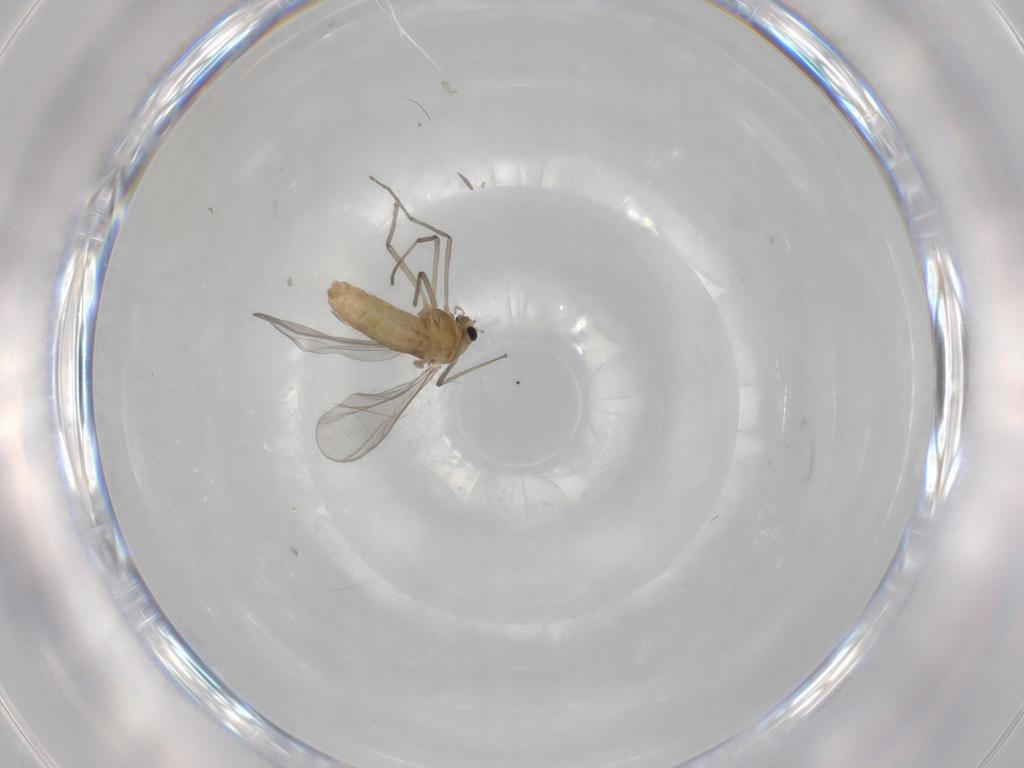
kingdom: Animalia
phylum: Arthropoda
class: Insecta
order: Diptera
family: Chironomidae
